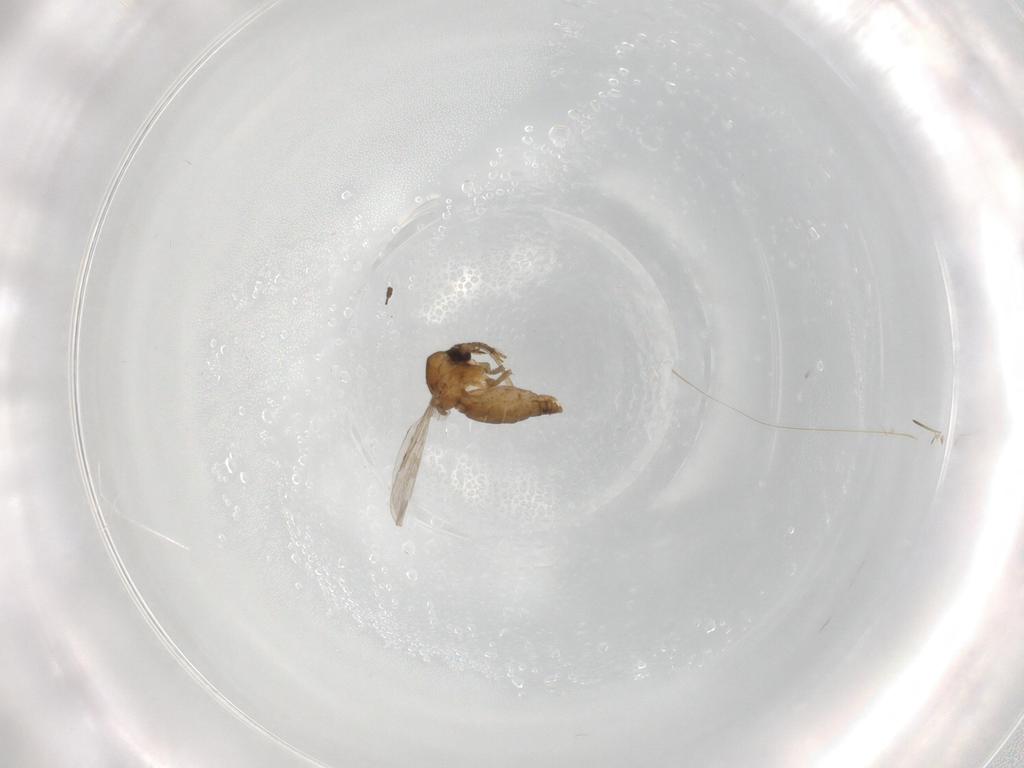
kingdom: Animalia
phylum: Arthropoda
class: Insecta
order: Diptera
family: Ceratopogonidae
